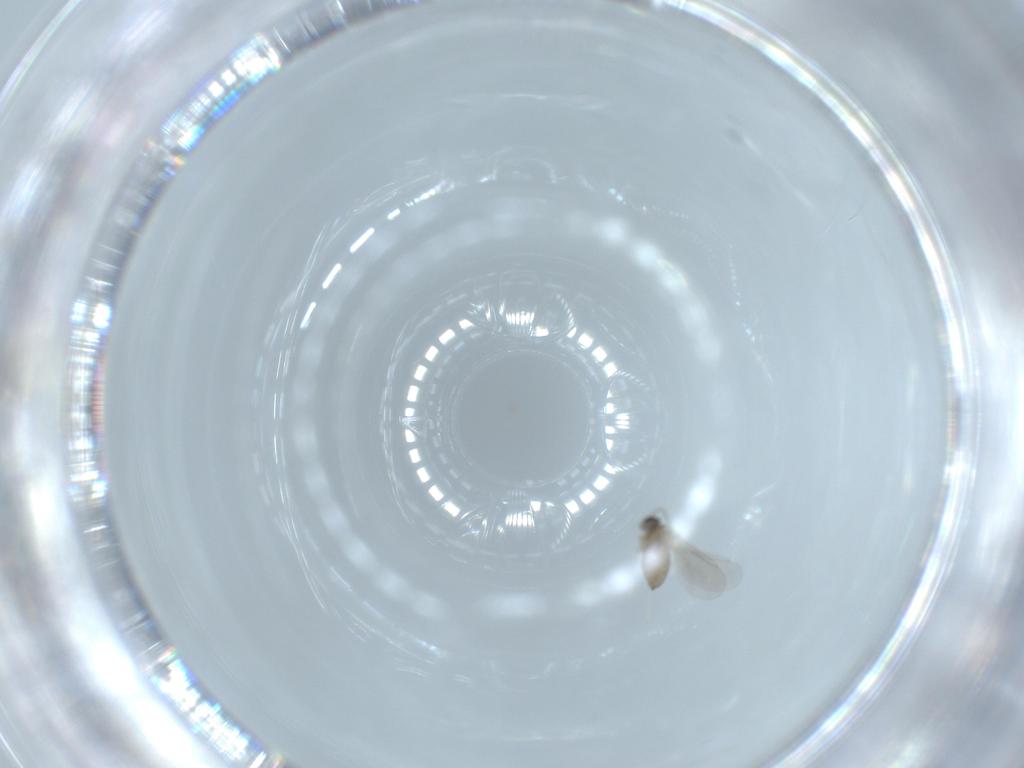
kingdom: Animalia
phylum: Arthropoda
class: Insecta
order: Diptera
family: Cecidomyiidae
